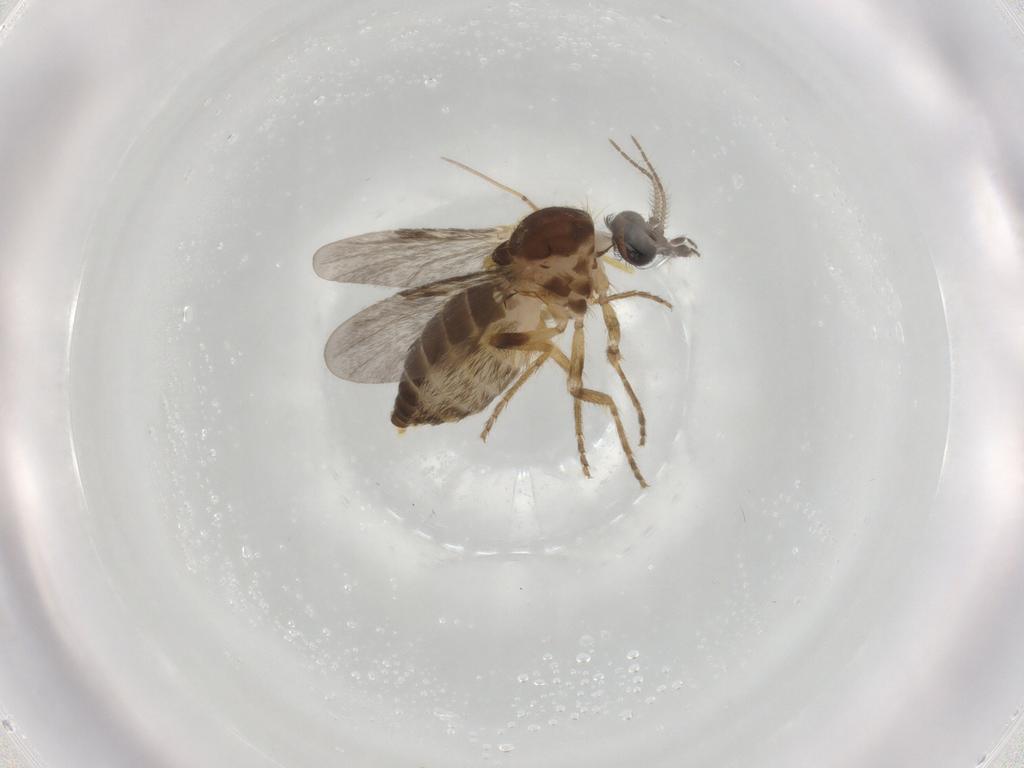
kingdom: Animalia
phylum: Arthropoda
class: Insecta
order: Diptera
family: Ceratopogonidae
